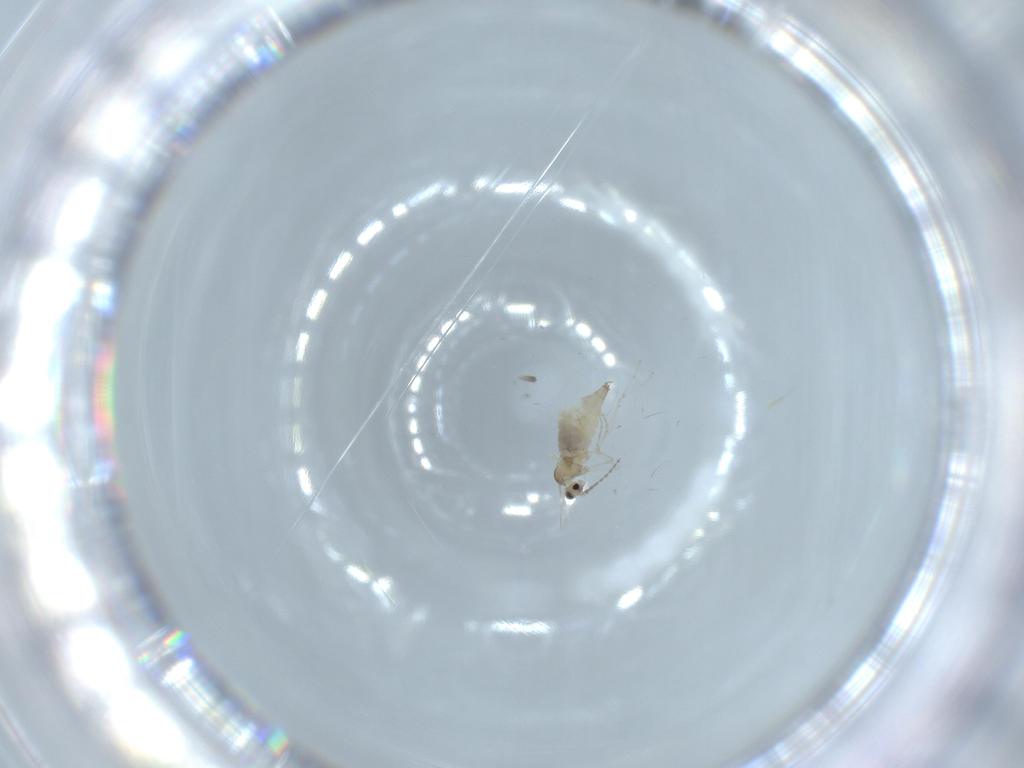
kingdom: Animalia
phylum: Arthropoda
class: Insecta
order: Diptera
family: Cecidomyiidae
